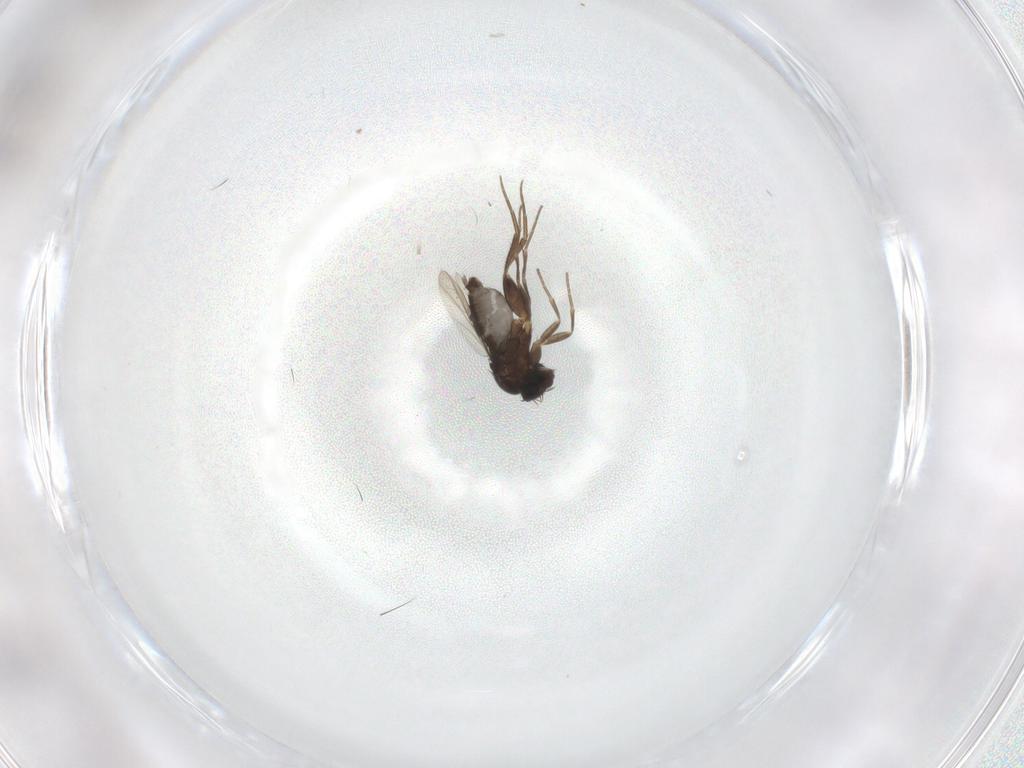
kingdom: Animalia
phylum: Arthropoda
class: Insecta
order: Diptera
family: Phoridae
